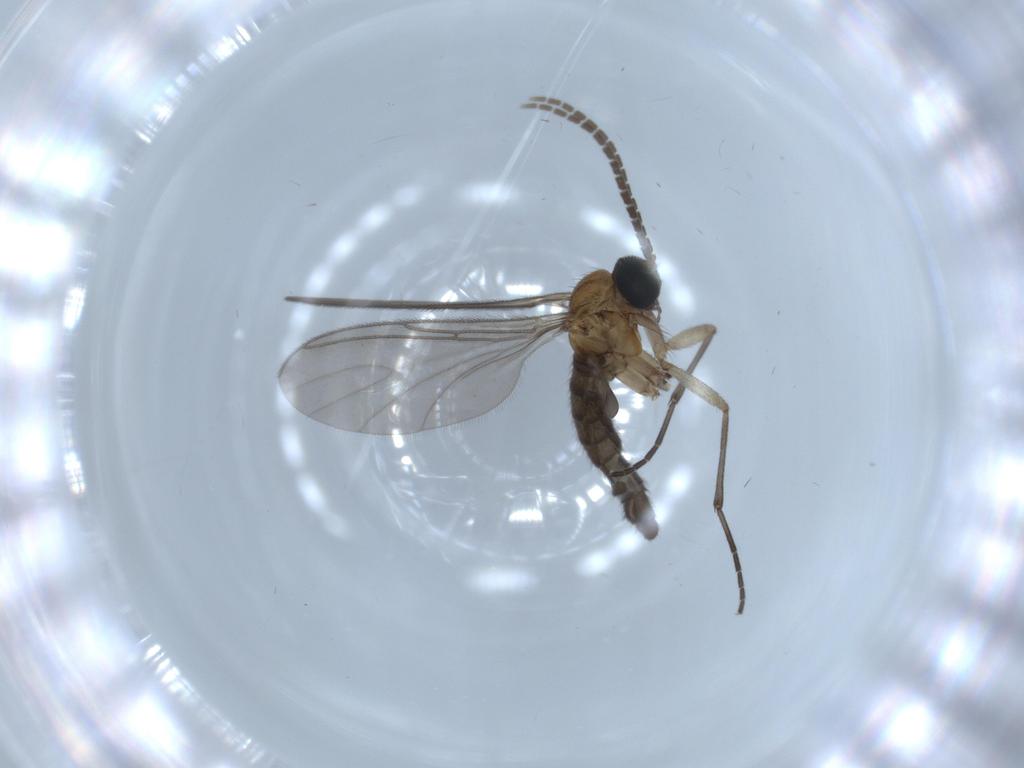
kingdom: Animalia
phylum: Arthropoda
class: Insecta
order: Diptera
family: Sciaridae
